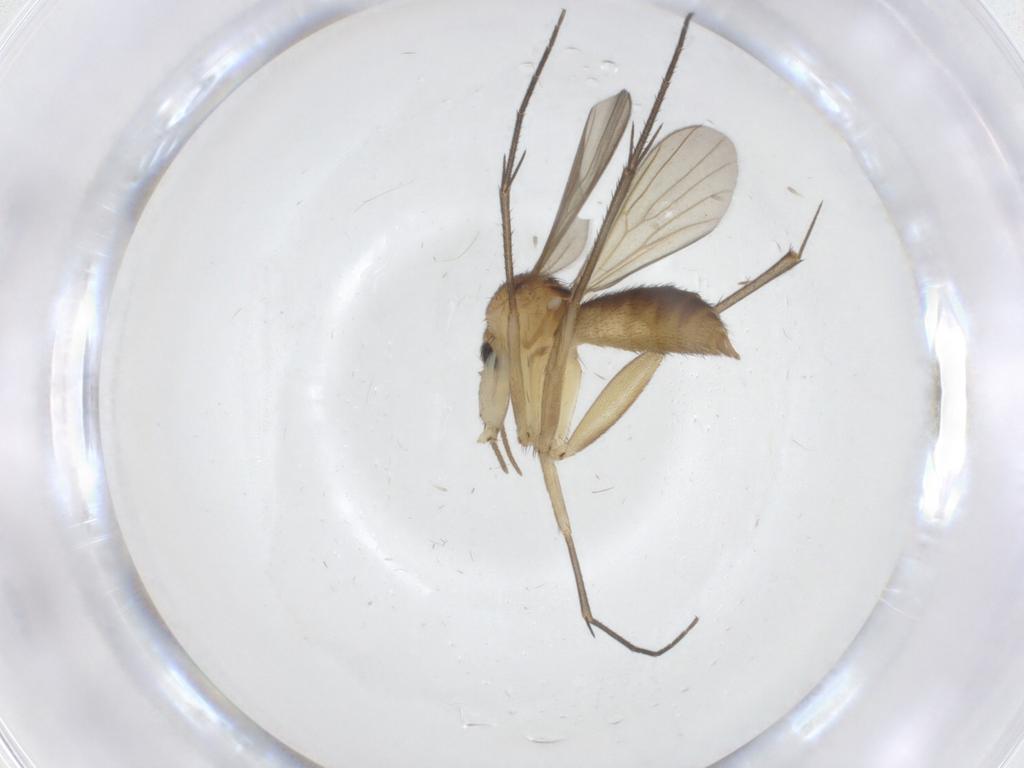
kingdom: Animalia
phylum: Arthropoda
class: Insecta
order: Diptera
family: Mycetophilidae
